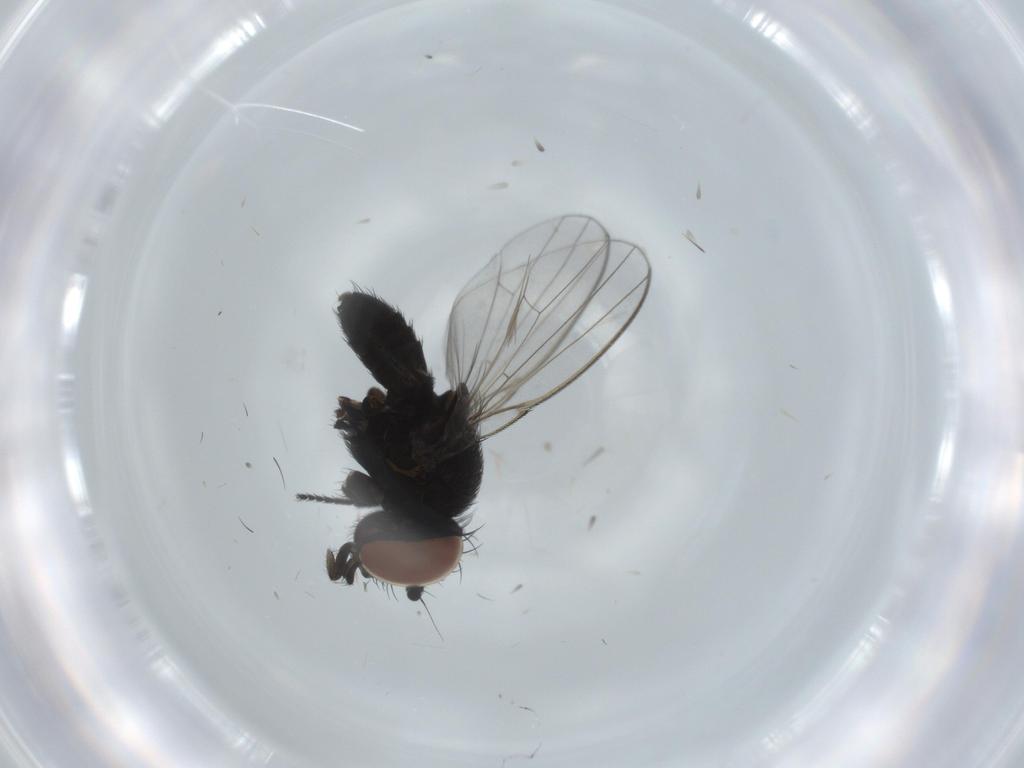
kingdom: Animalia
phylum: Arthropoda
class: Insecta
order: Diptera
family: Milichiidae
